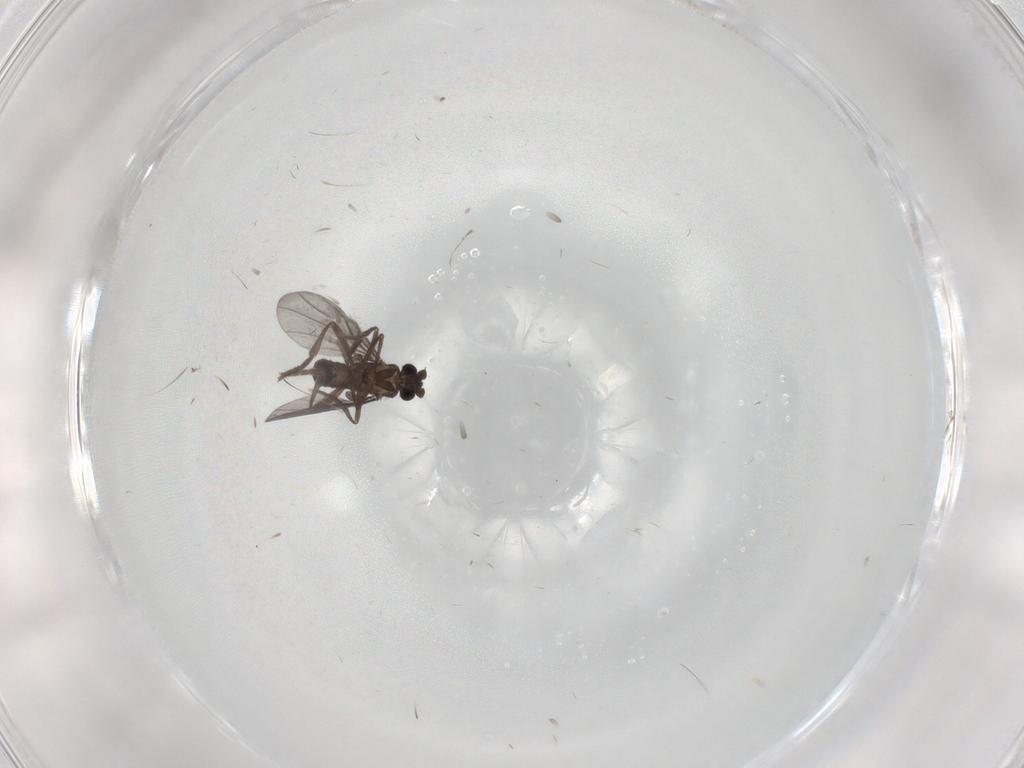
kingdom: Animalia
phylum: Arthropoda
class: Insecta
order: Diptera
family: Phoridae
